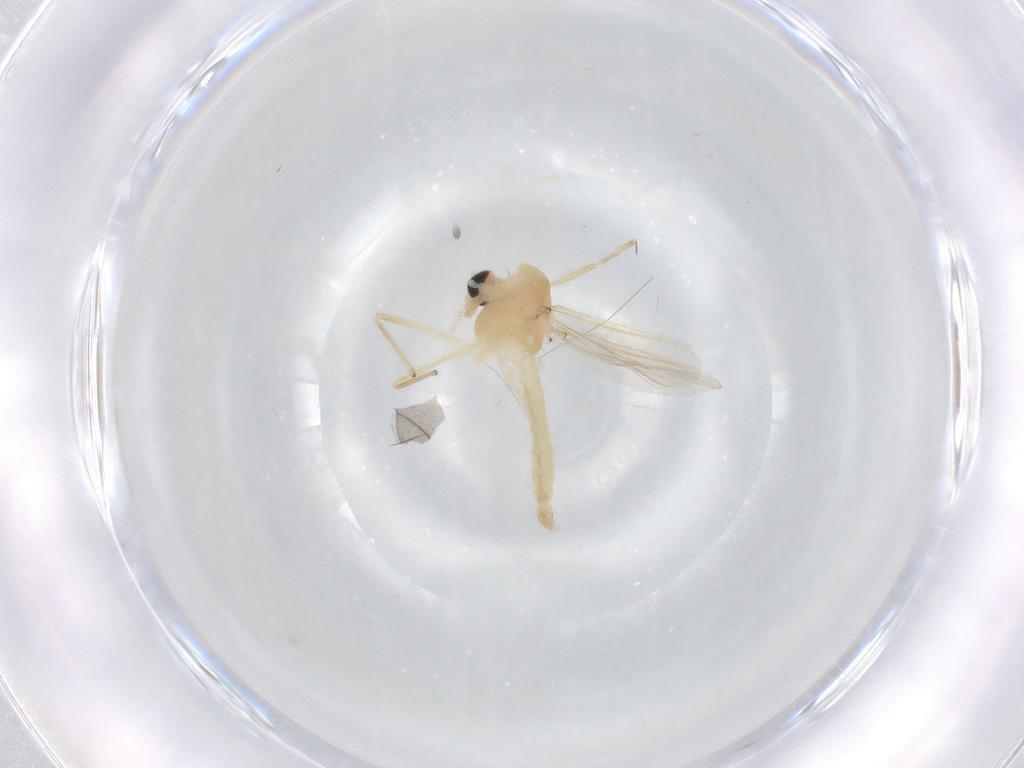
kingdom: Animalia
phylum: Arthropoda
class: Insecta
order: Diptera
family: Chironomidae
